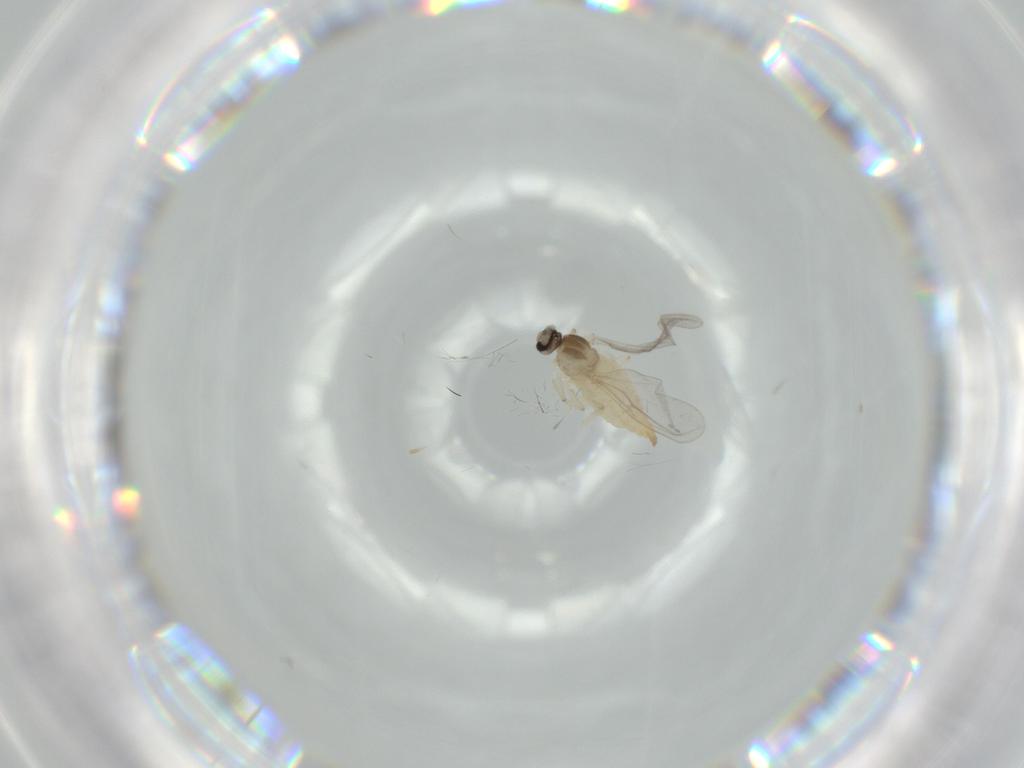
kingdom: Animalia
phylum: Arthropoda
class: Insecta
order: Diptera
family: Cecidomyiidae
